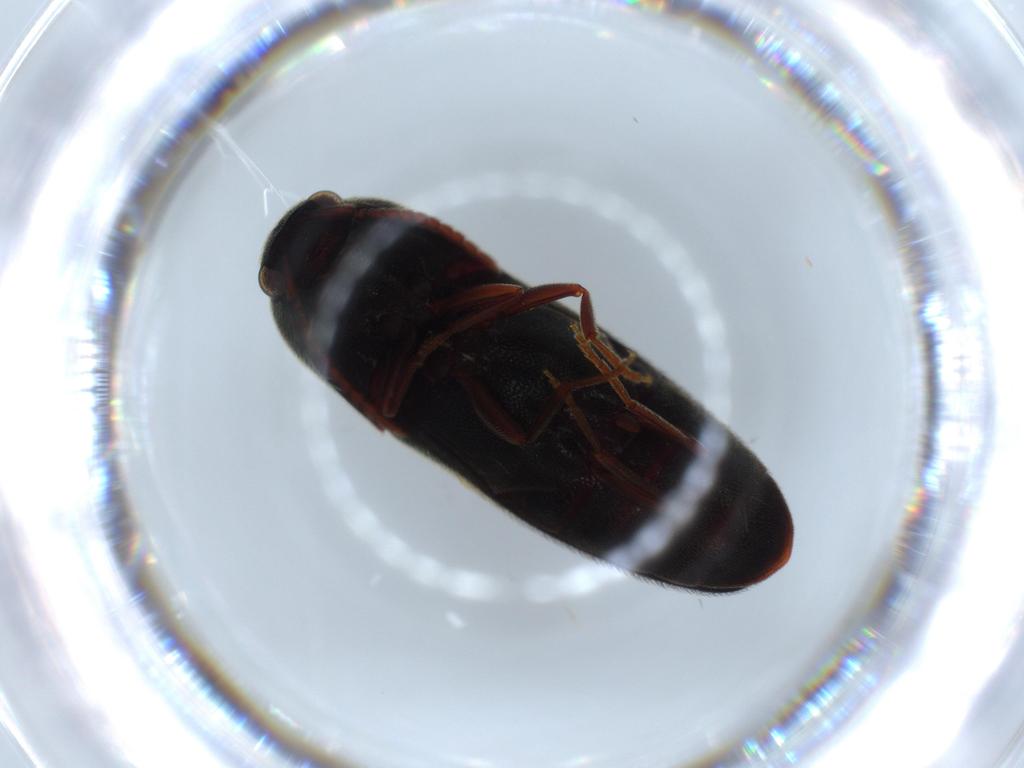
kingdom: Animalia
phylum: Arthropoda
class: Insecta
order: Coleoptera
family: Eucnemidae
